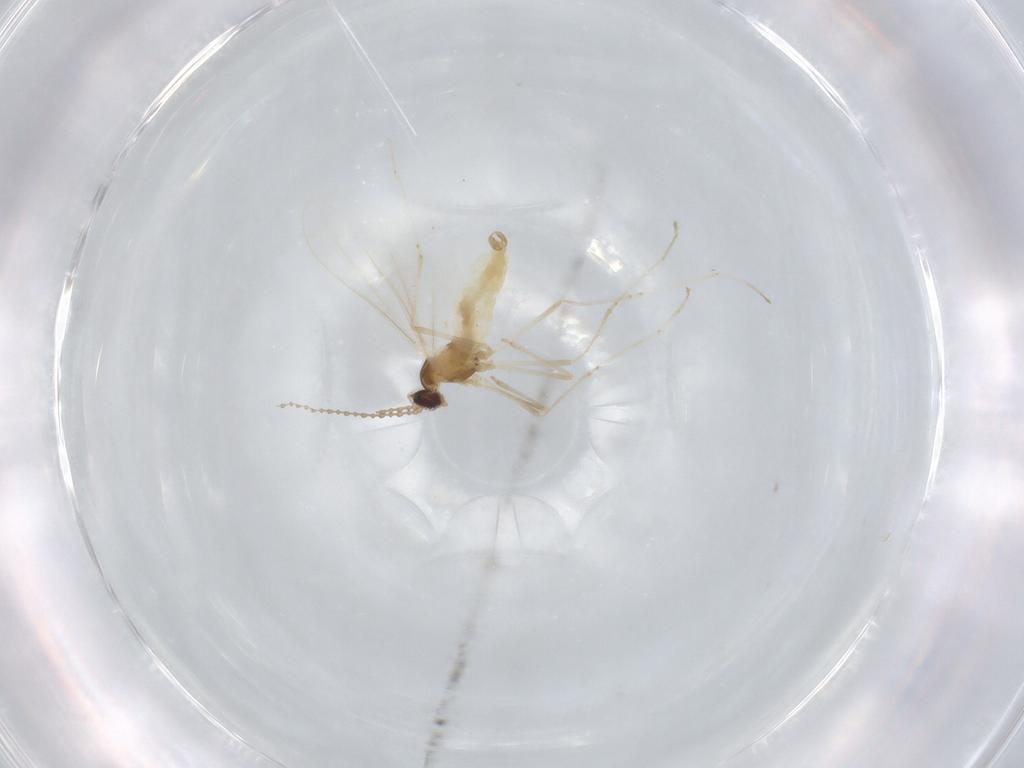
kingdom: Animalia
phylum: Arthropoda
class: Insecta
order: Diptera
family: Cecidomyiidae
